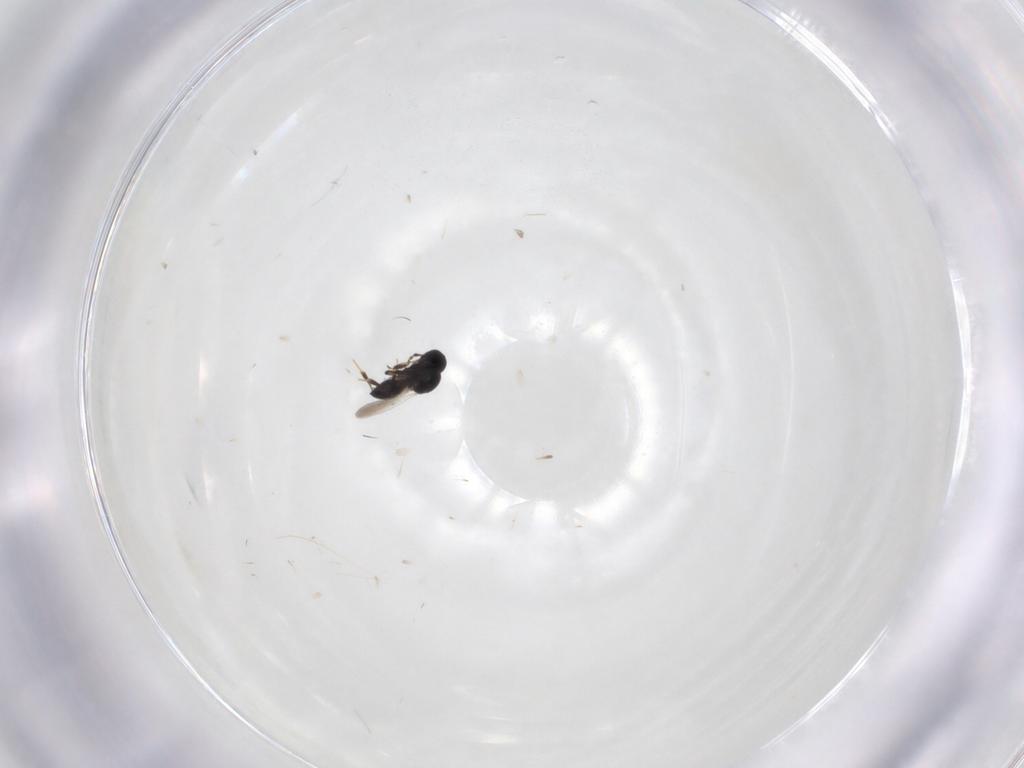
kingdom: Animalia
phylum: Arthropoda
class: Insecta
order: Hymenoptera
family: Platygastridae
